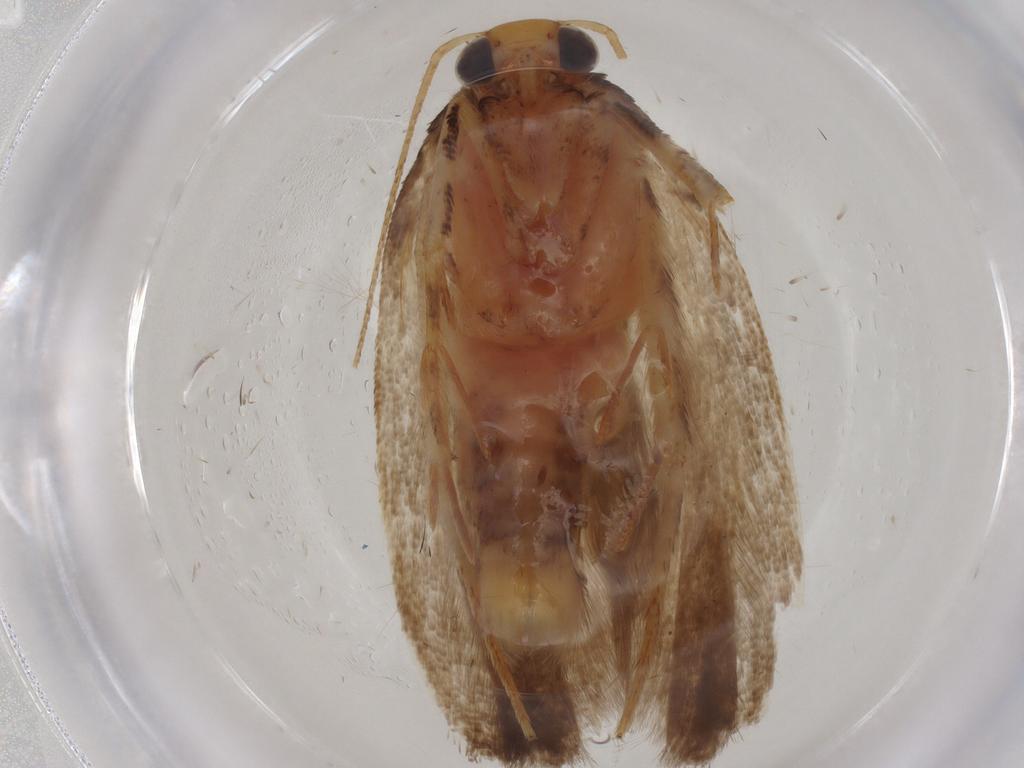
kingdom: Animalia
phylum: Arthropoda
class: Insecta
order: Lepidoptera
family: Gelechiidae
